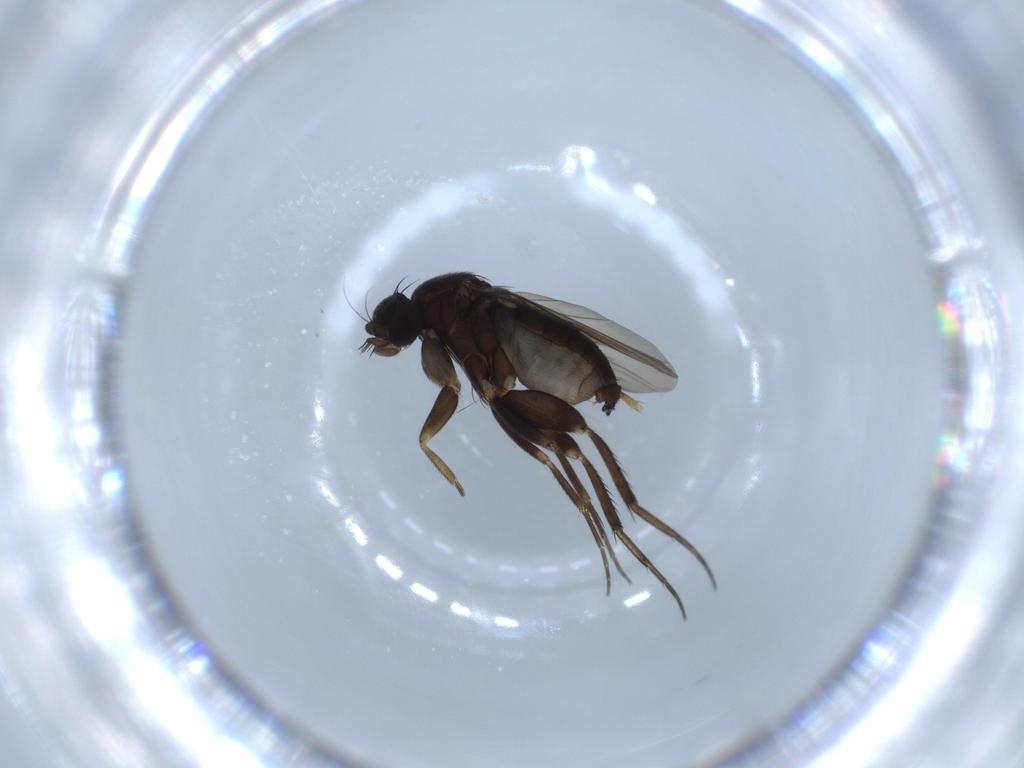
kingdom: Animalia
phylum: Arthropoda
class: Insecta
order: Diptera
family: Phoridae
